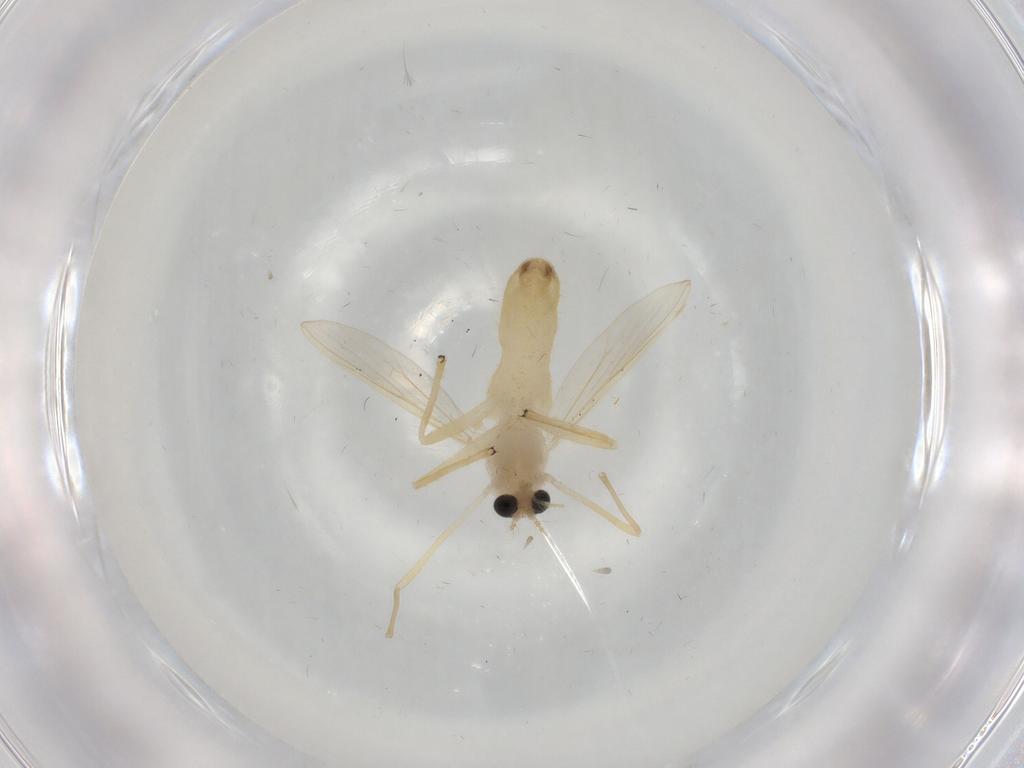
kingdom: Animalia
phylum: Arthropoda
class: Insecta
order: Diptera
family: Chironomidae
